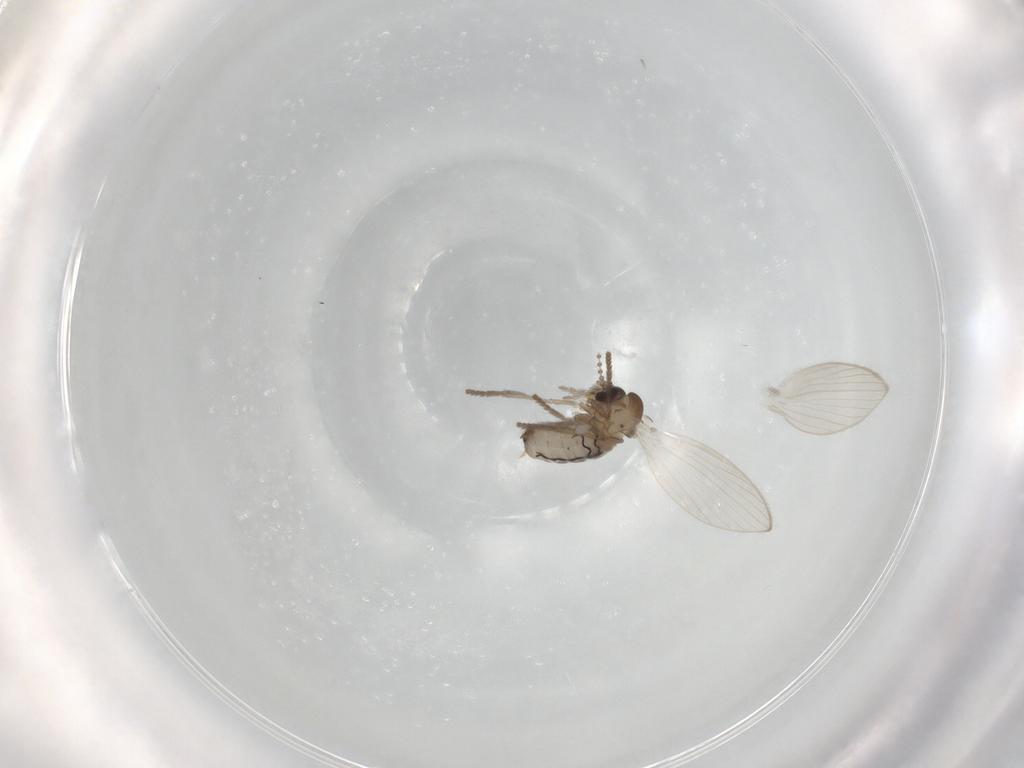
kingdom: Animalia
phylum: Arthropoda
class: Insecta
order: Diptera
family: Psychodidae
